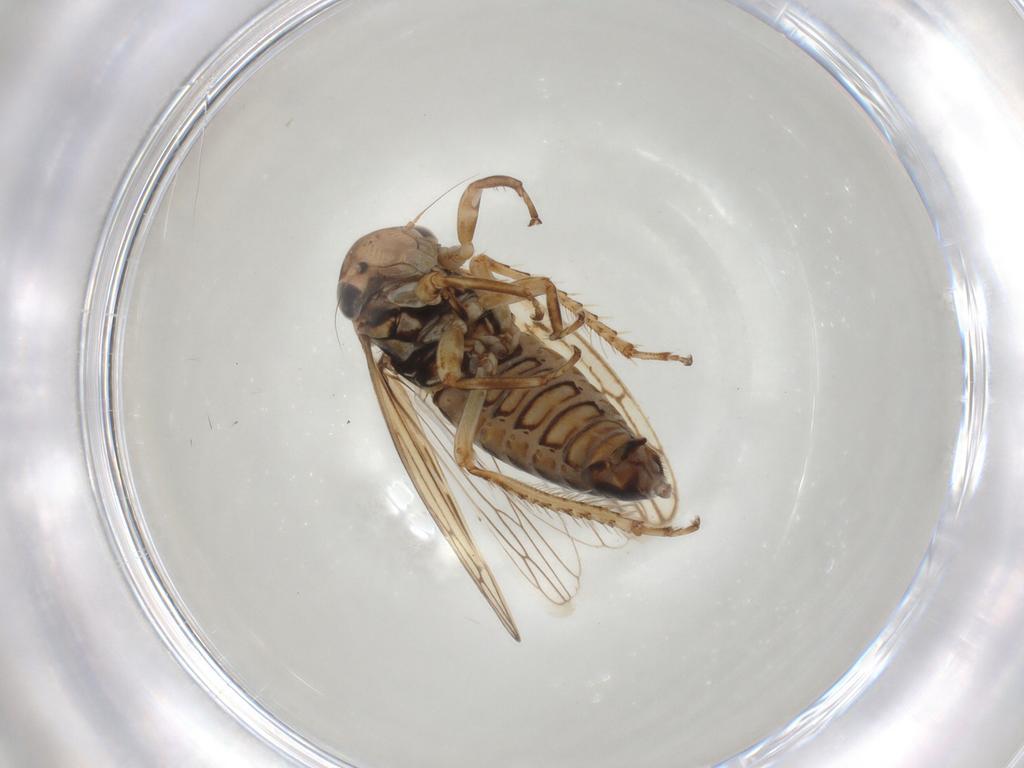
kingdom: Animalia
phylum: Arthropoda
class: Insecta
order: Hemiptera
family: Cicadellidae
